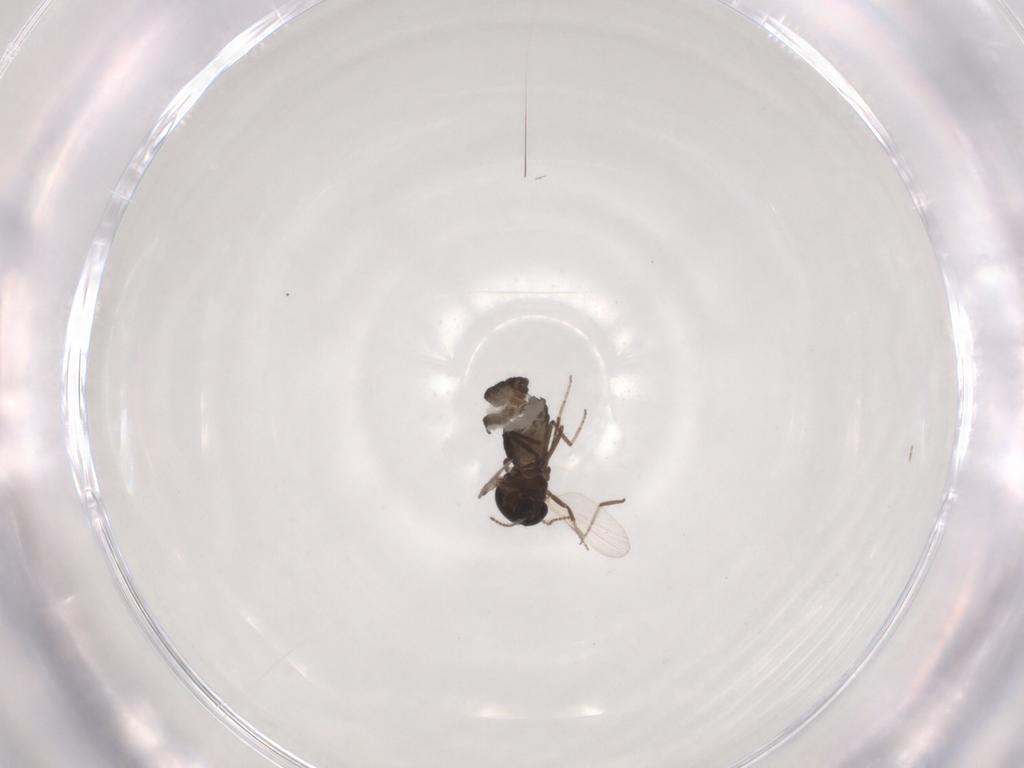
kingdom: Animalia
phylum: Arthropoda
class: Insecta
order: Diptera
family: Ceratopogonidae
